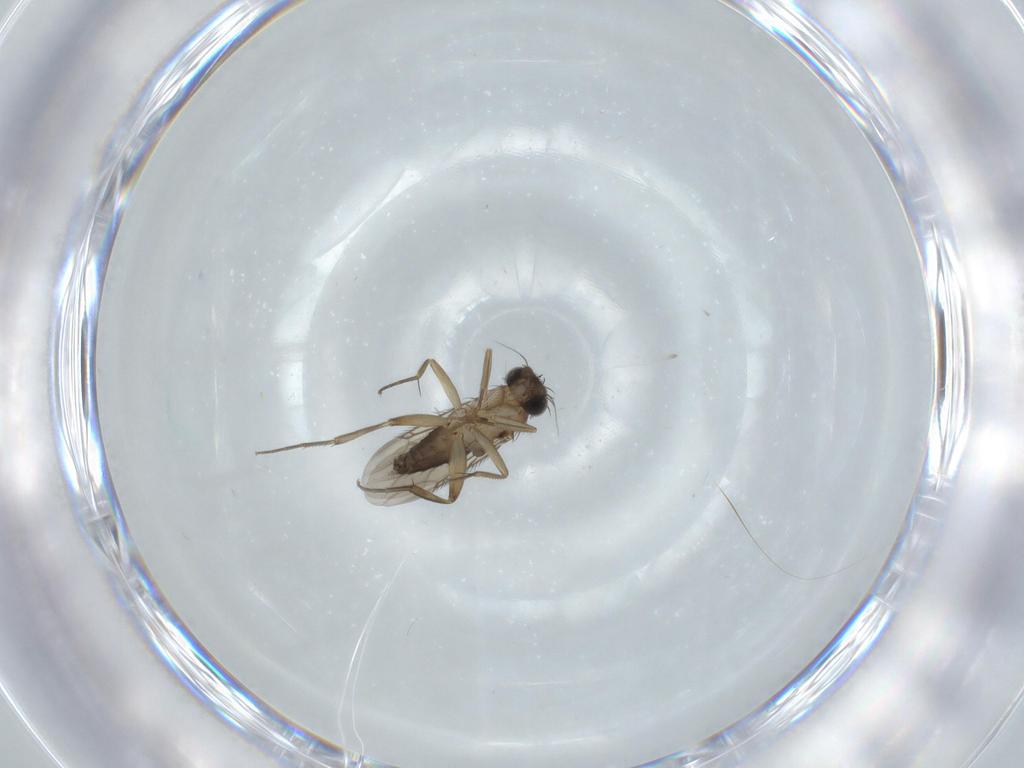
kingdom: Animalia
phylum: Arthropoda
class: Insecta
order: Diptera
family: Phoridae
